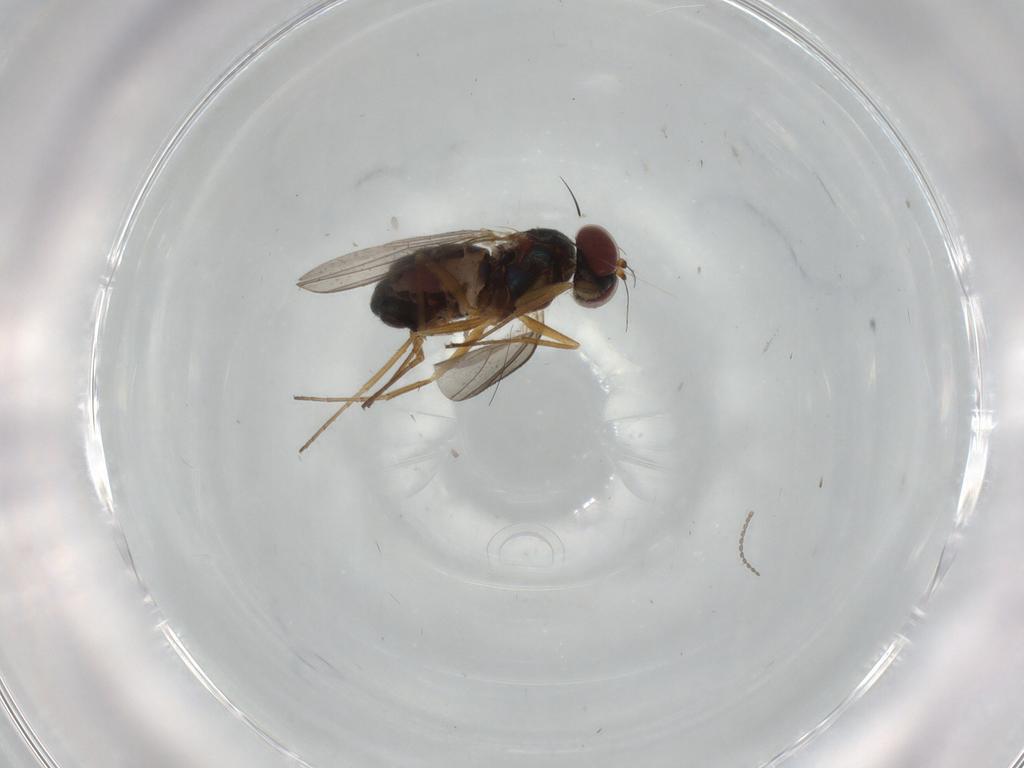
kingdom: Animalia
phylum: Arthropoda
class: Insecta
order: Diptera
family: Dolichopodidae
